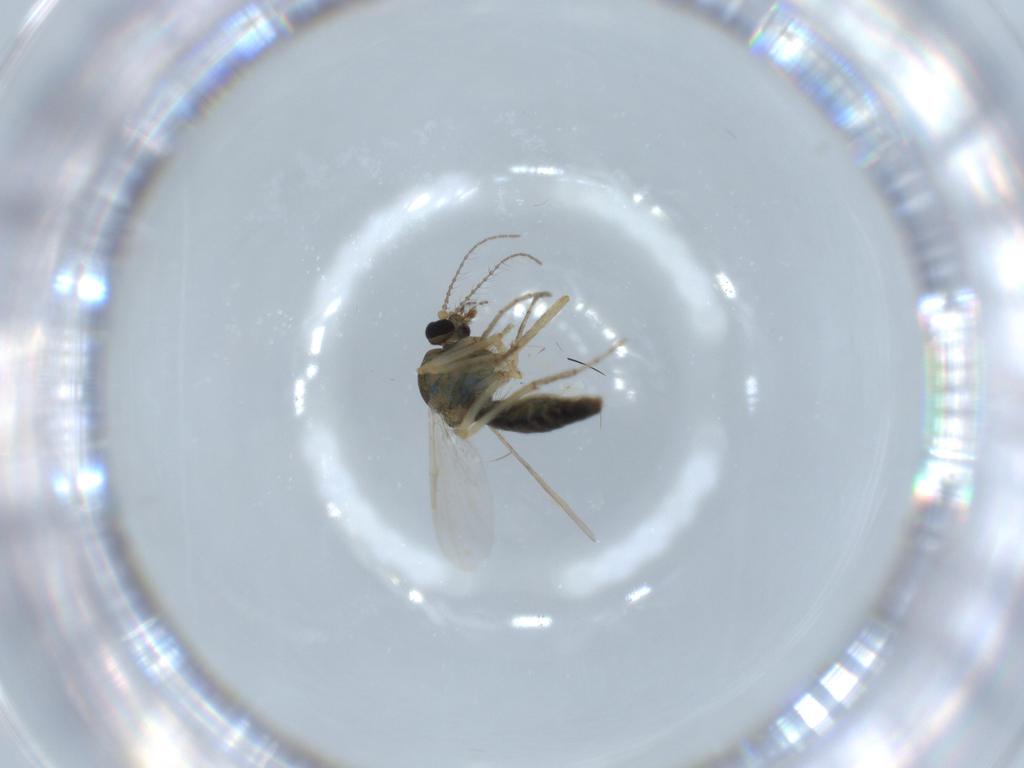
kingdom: Animalia
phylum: Arthropoda
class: Insecta
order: Diptera
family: Ceratopogonidae
